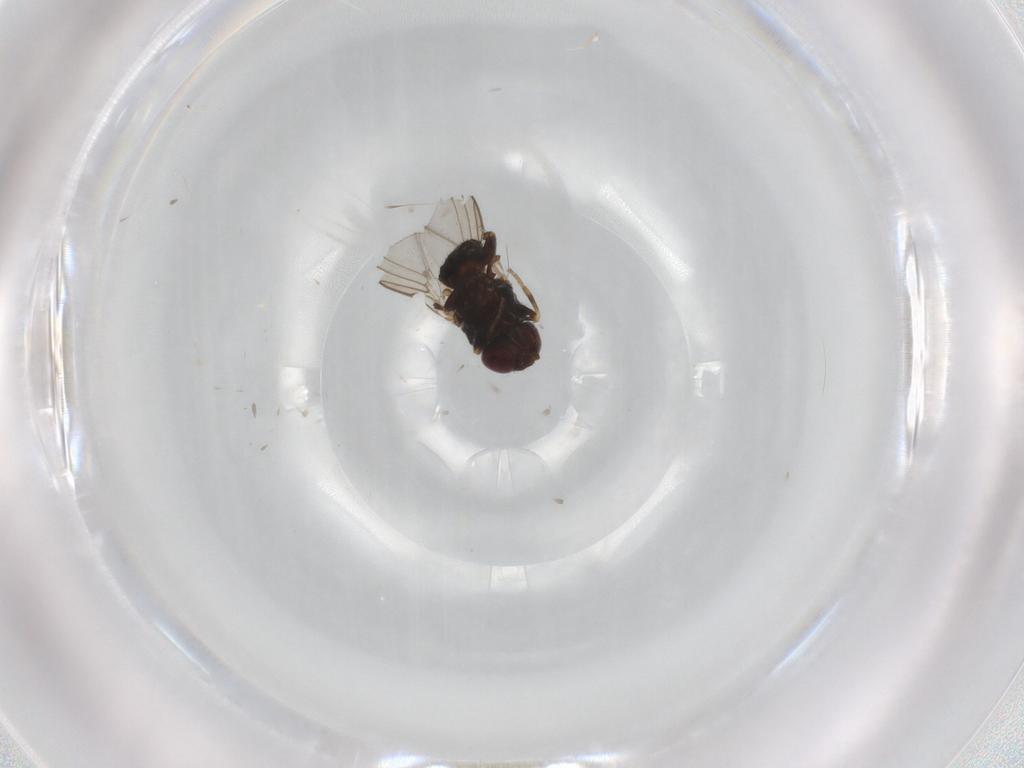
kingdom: Animalia
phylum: Arthropoda
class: Insecta
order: Diptera
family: Chloropidae
